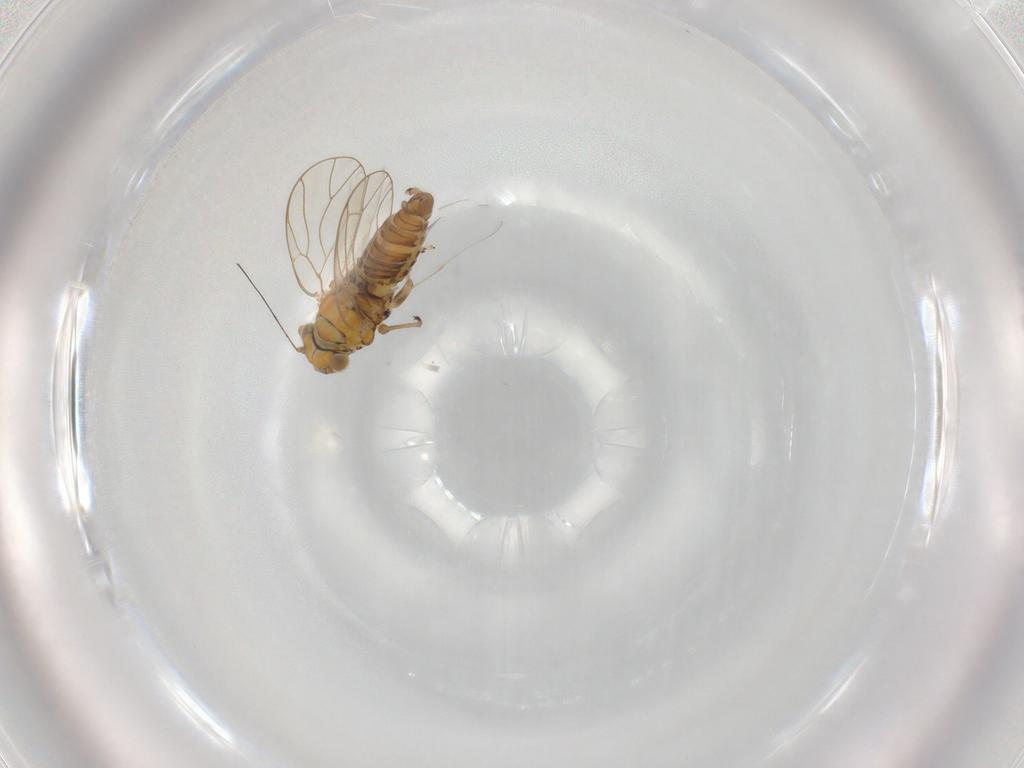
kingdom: Animalia
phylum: Arthropoda
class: Insecta
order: Hemiptera
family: Psyllidae
